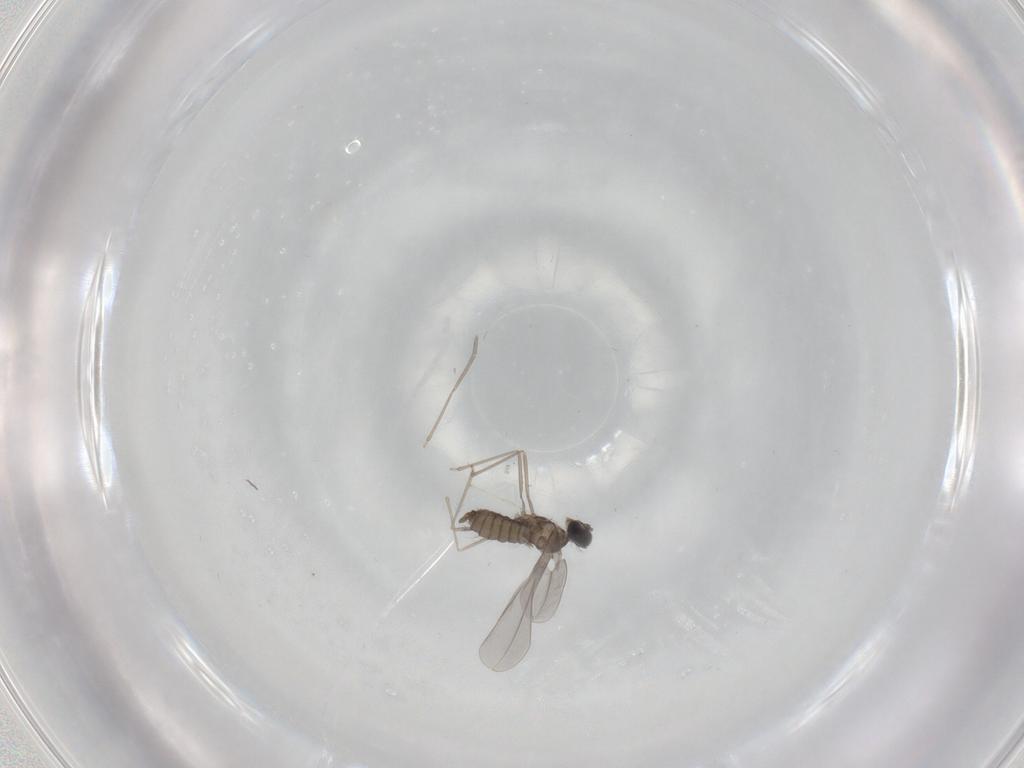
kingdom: Animalia
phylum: Arthropoda
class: Insecta
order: Diptera
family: Cecidomyiidae
